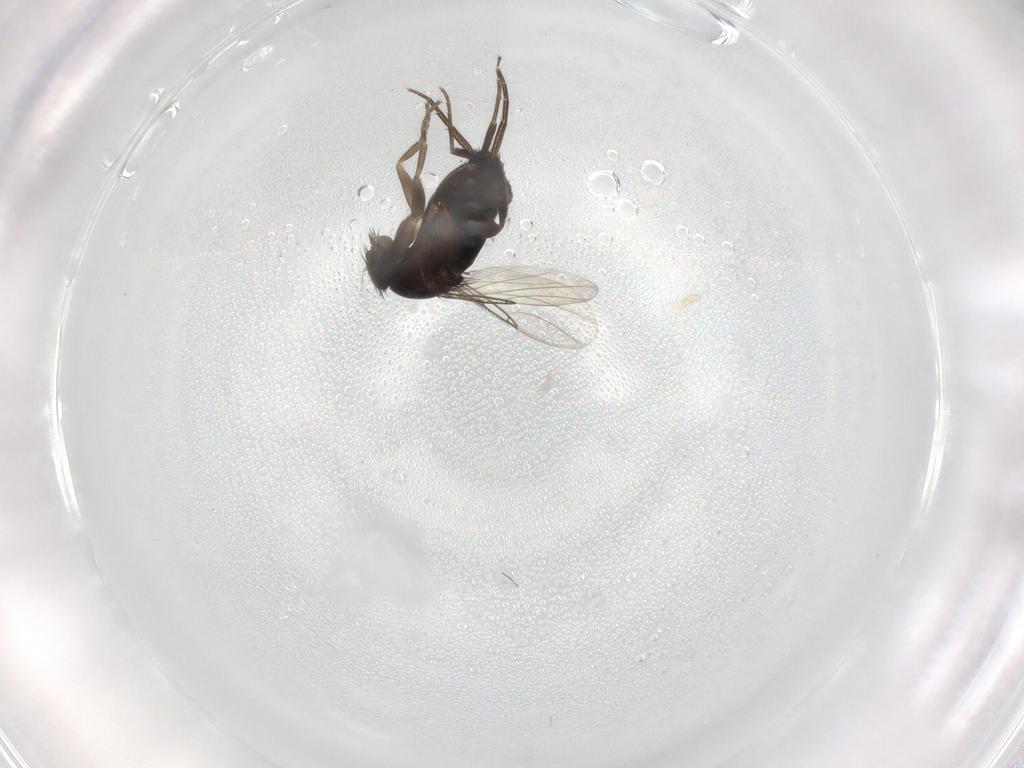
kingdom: Animalia
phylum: Arthropoda
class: Insecta
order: Diptera
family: Phoridae
